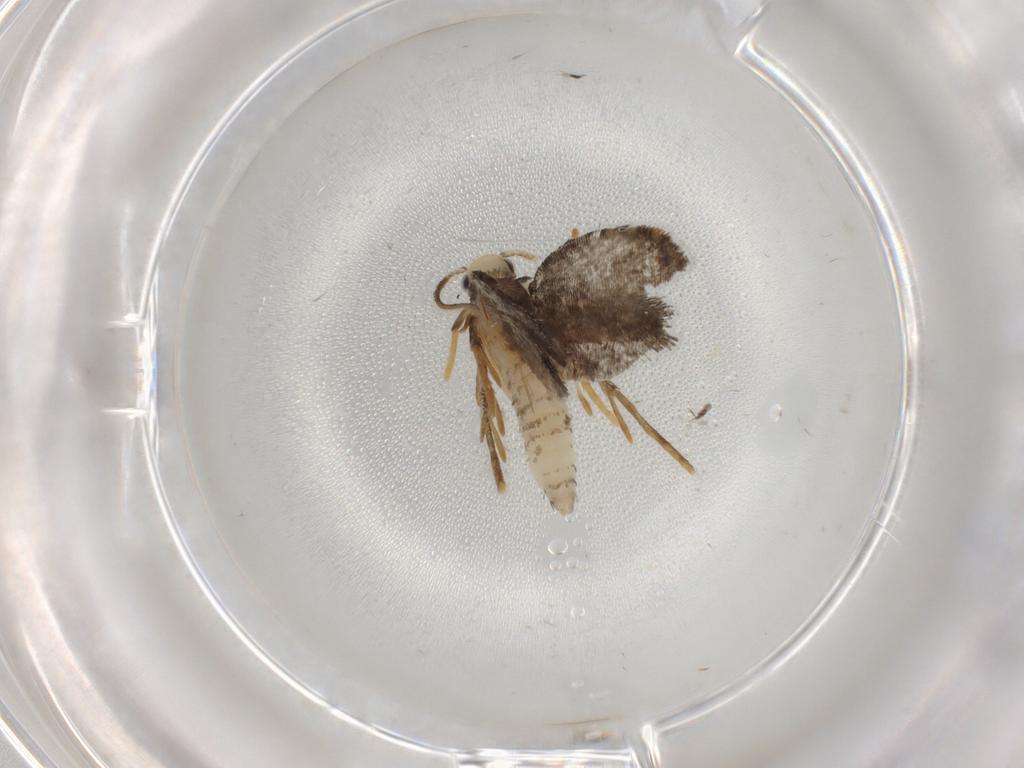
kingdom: Animalia
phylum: Arthropoda
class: Insecta
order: Lepidoptera
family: Psychidae
